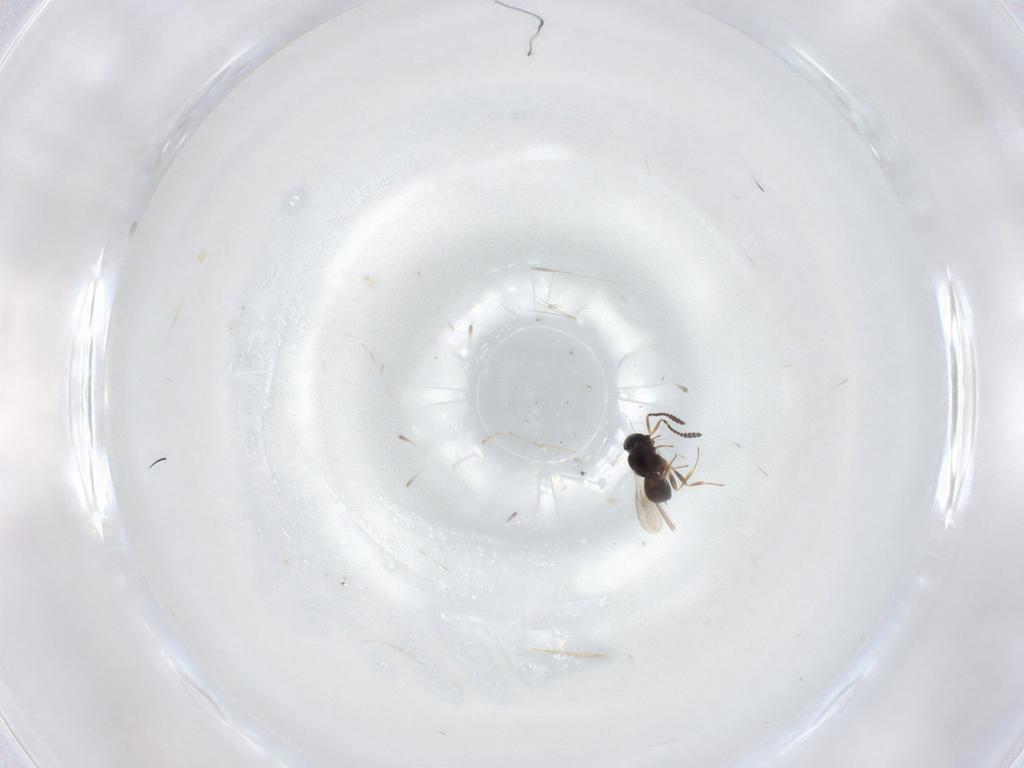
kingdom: Animalia
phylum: Arthropoda
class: Insecta
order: Hymenoptera
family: Scelionidae
